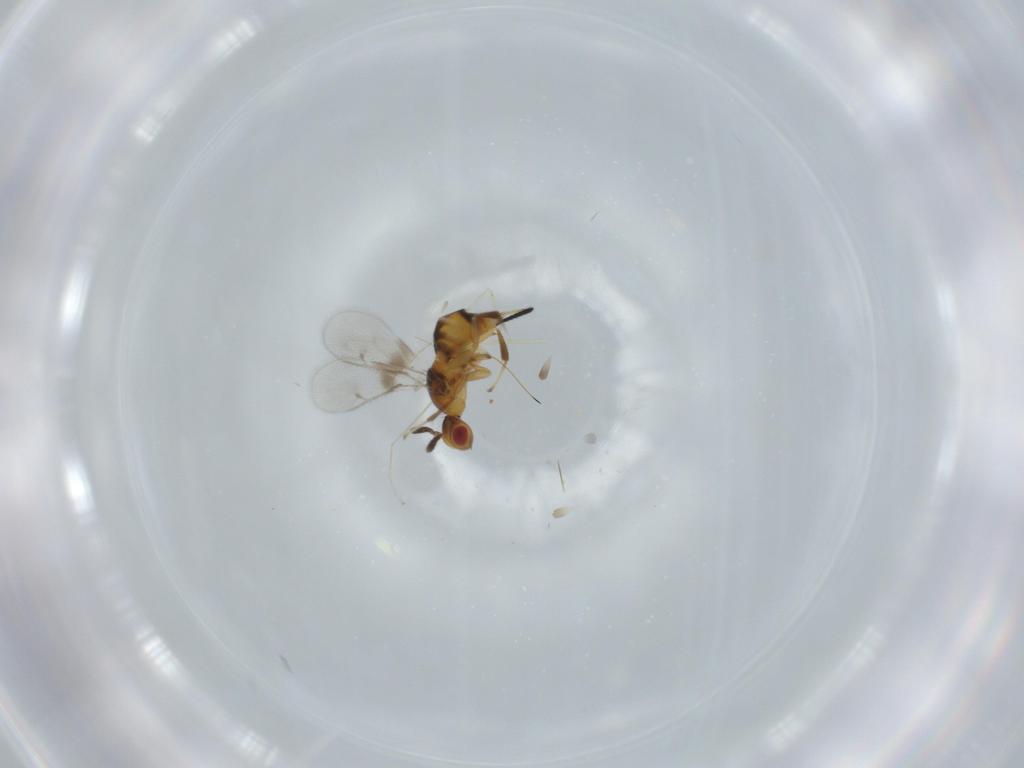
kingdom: Animalia
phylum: Arthropoda
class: Insecta
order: Hymenoptera
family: Torymidae
